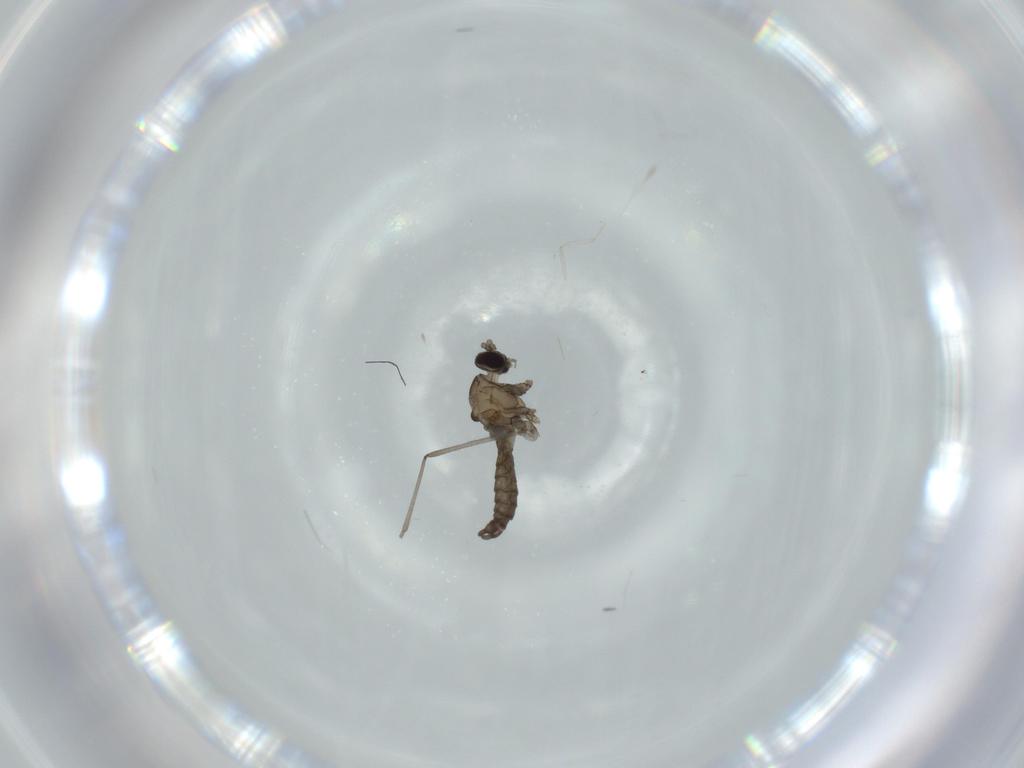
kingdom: Animalia
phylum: Arthropoda
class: Insecta
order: Diptera
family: Cecidomyiidae
